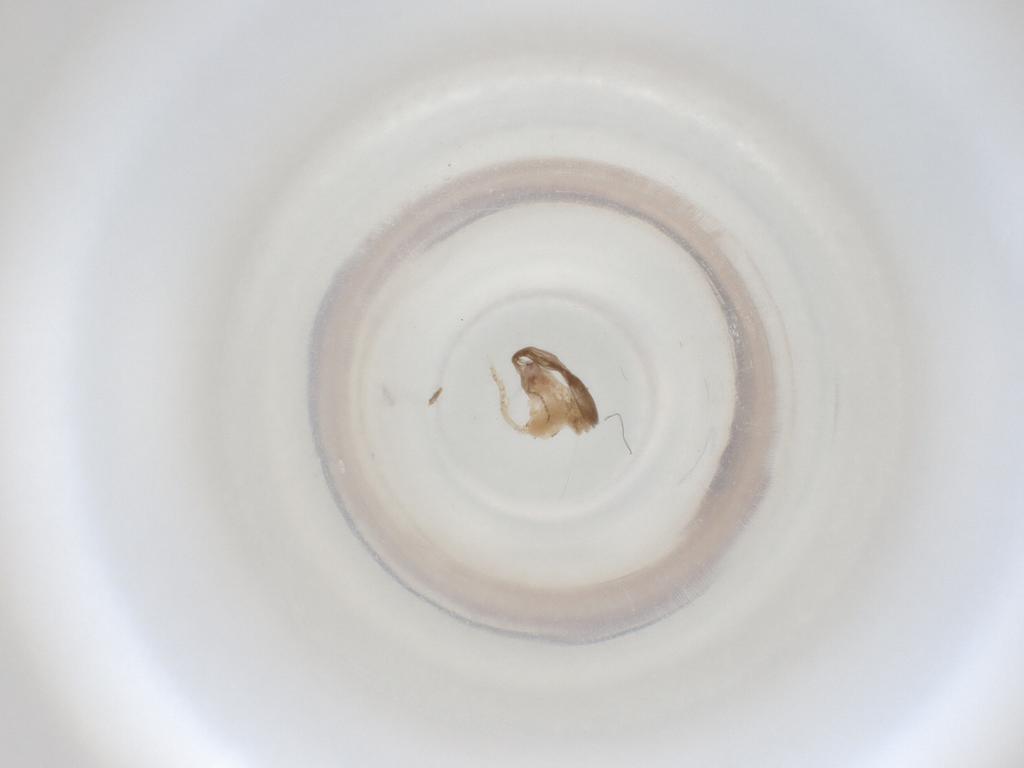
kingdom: Animalia
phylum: Arthropoda
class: Insecta
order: Diptera
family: Cecidomyiidae
